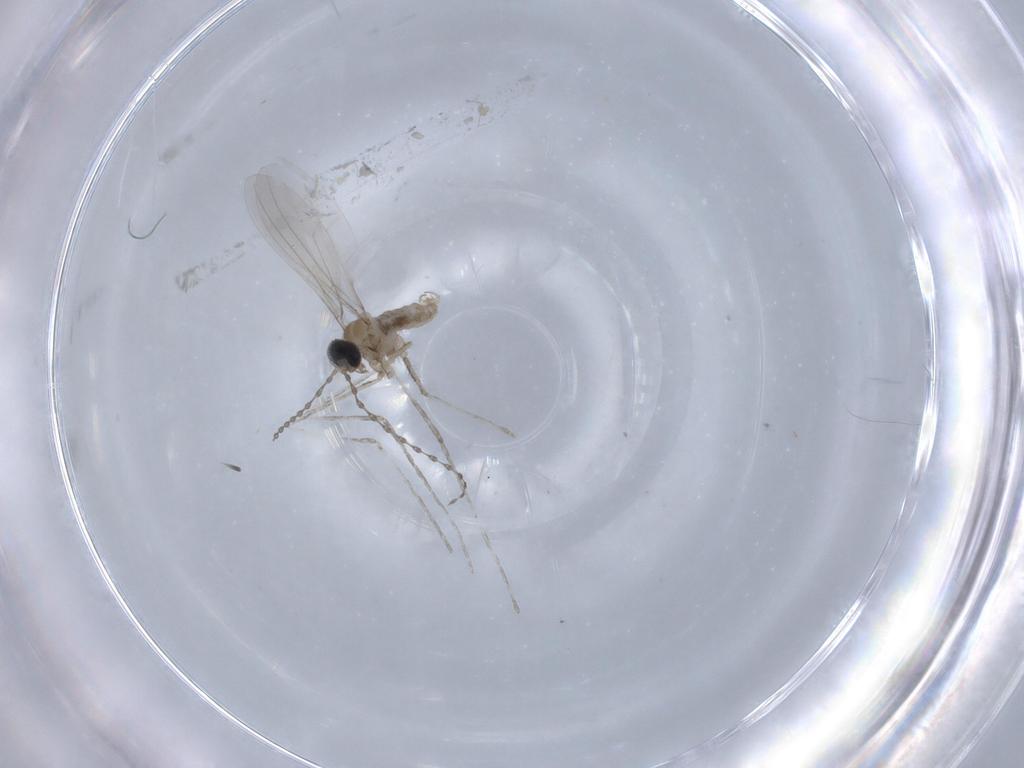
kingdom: Animalia
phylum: Arthropoda
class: Insecta
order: Diptera
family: Cecidomyiidae
